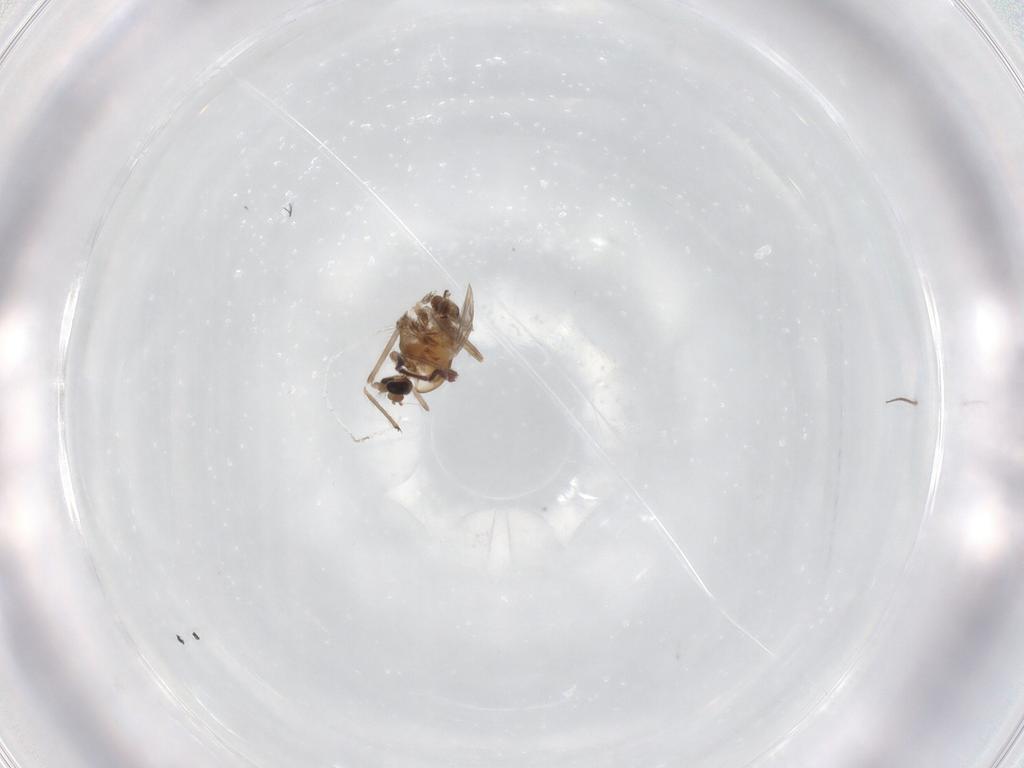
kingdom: Animalia
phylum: Arthropoda
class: Insecta
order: Diptera
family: Chironomidae
